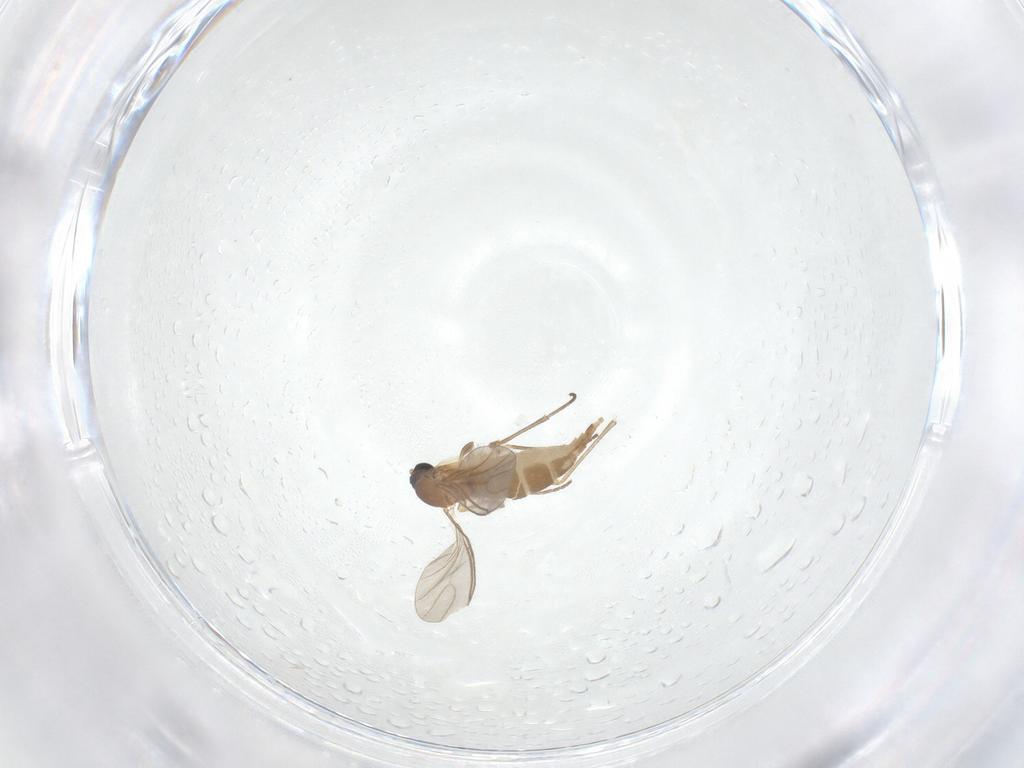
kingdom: Animalia
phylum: Arthropoda
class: Insecta
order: Diptera
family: Sciaridae
